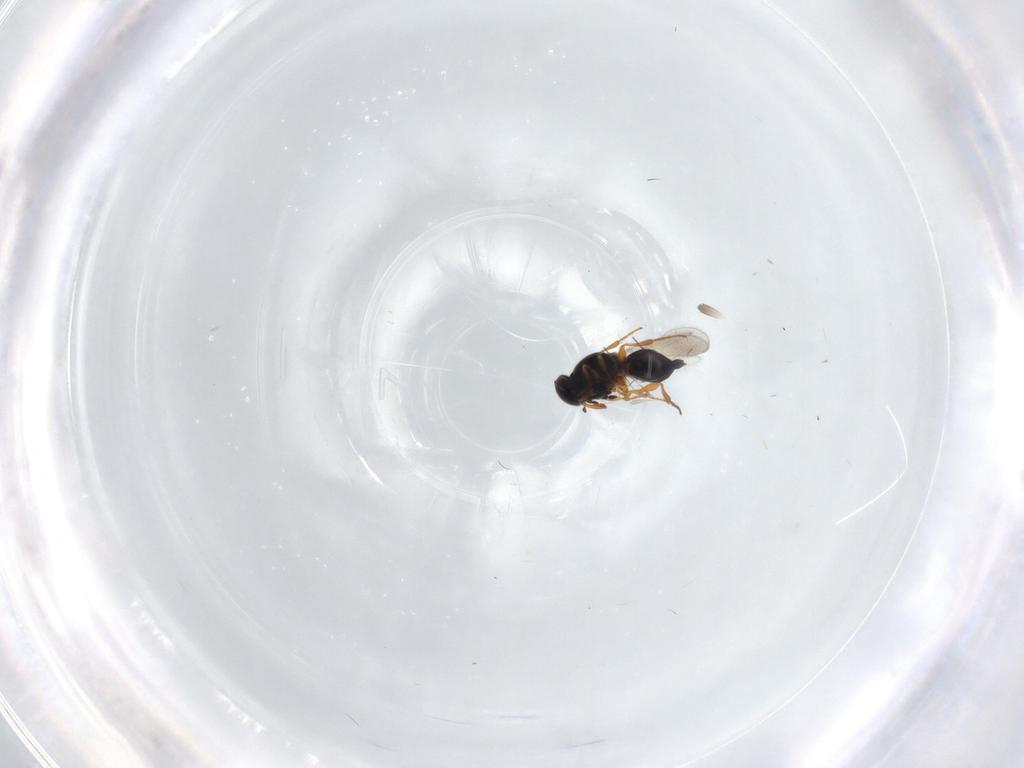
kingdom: Animalia
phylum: Arthropoda
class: Insecta
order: Hymenoptera
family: Platygastridae
